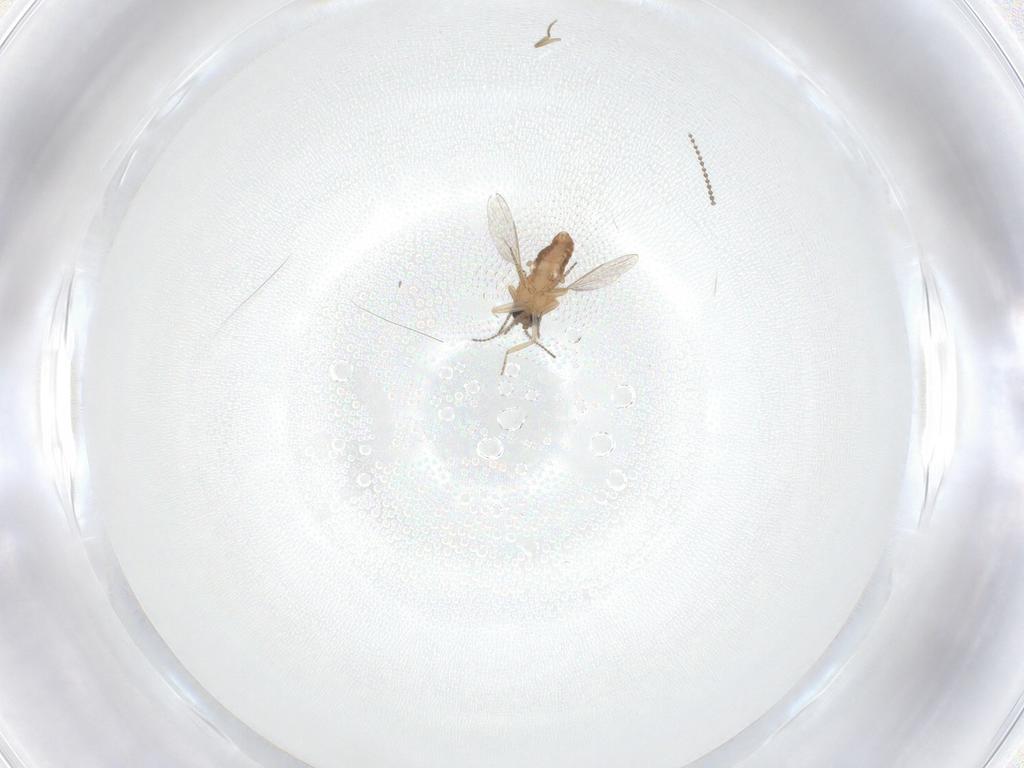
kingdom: Animalia
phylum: Arthropoda
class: Insecta
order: Diptera
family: Ceratopogonidae
